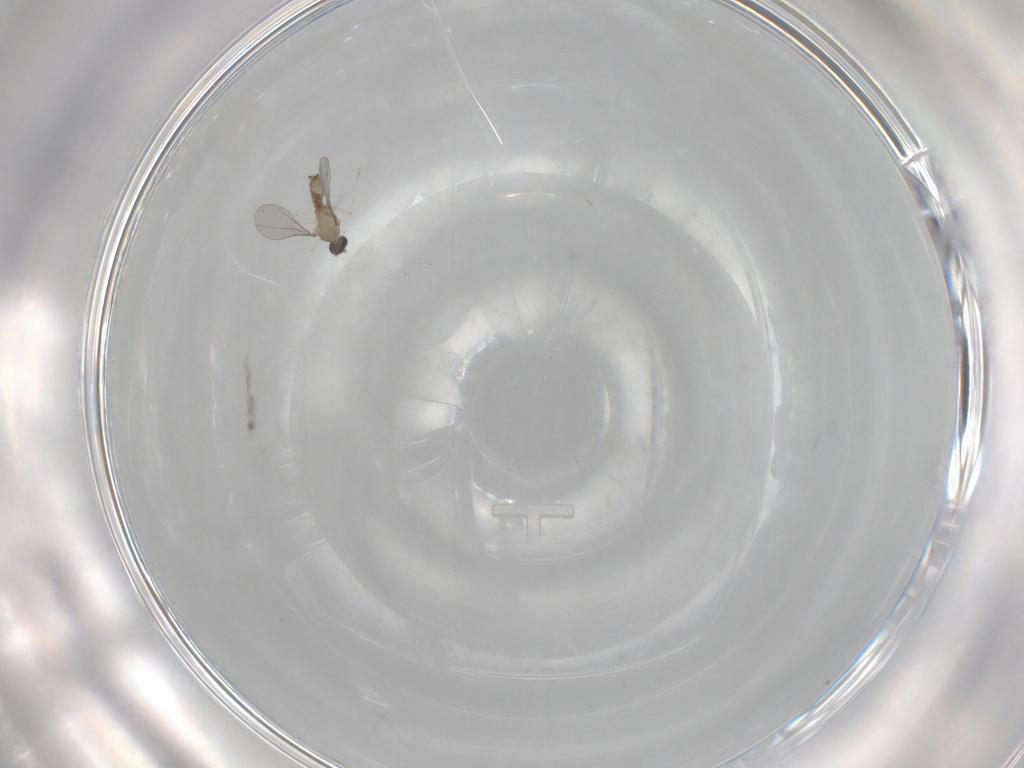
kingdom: Animalia
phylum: Arthropoda
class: Insecta
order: Diptera
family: Cecidomyiidae
